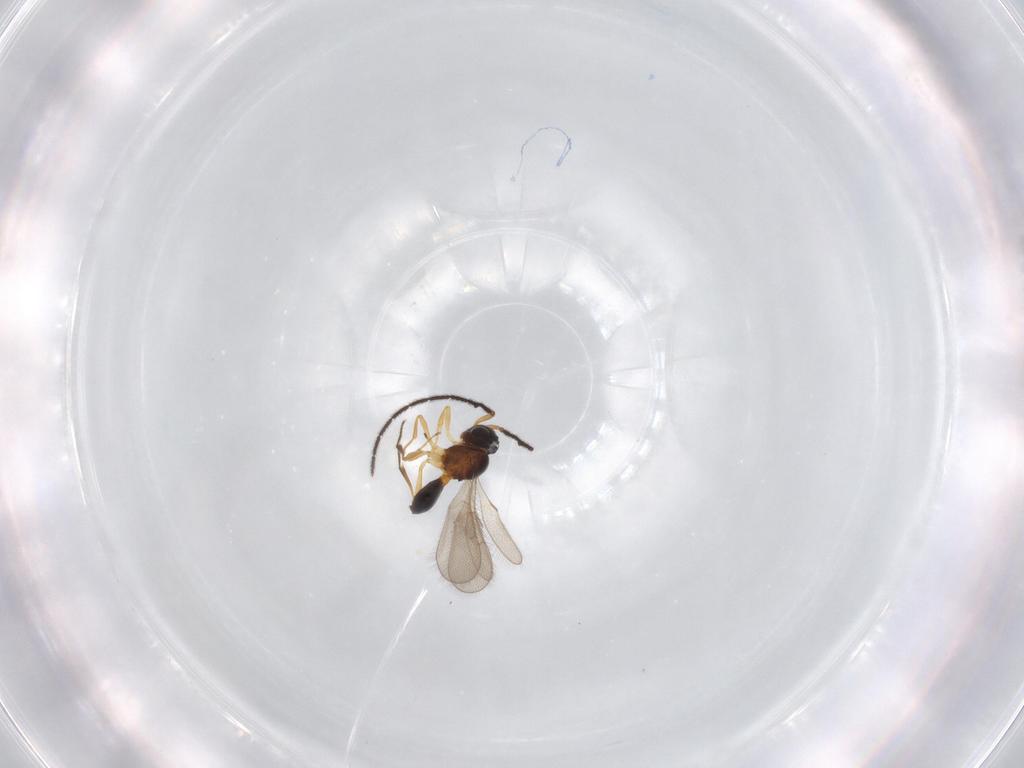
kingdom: Animalia
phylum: Arthropoda
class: Insecta
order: Hymenoptera
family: Scelionidae
